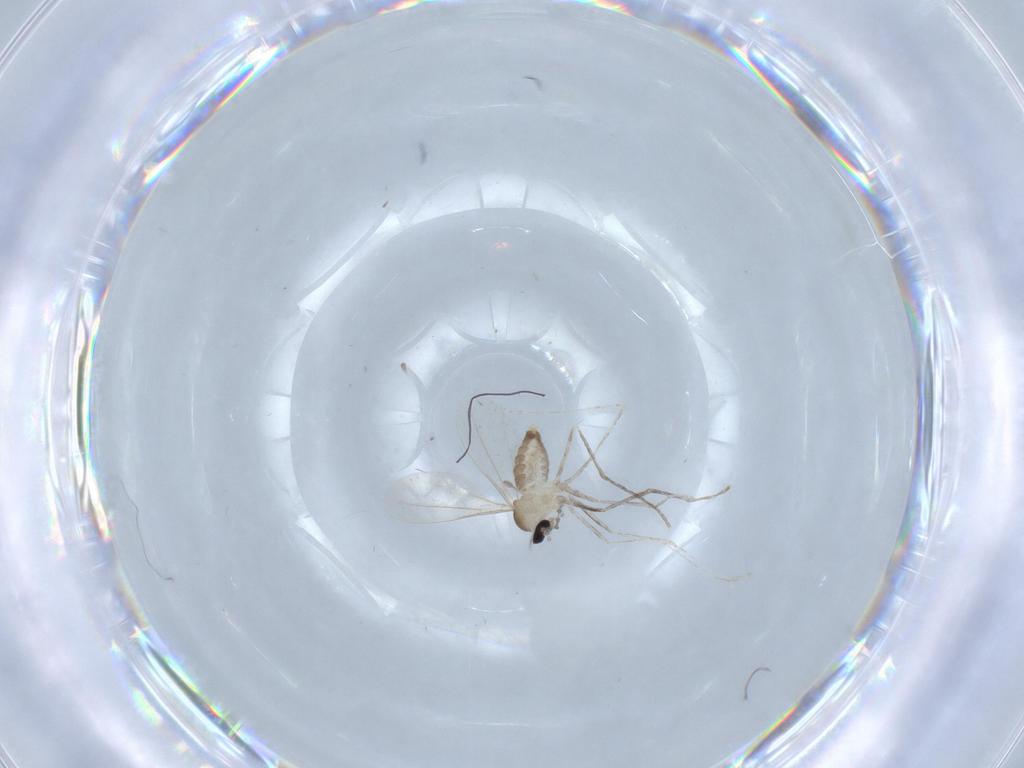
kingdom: Animalia
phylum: Arthropoda
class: Insecta
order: Diptera
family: Cecidomyiidae
